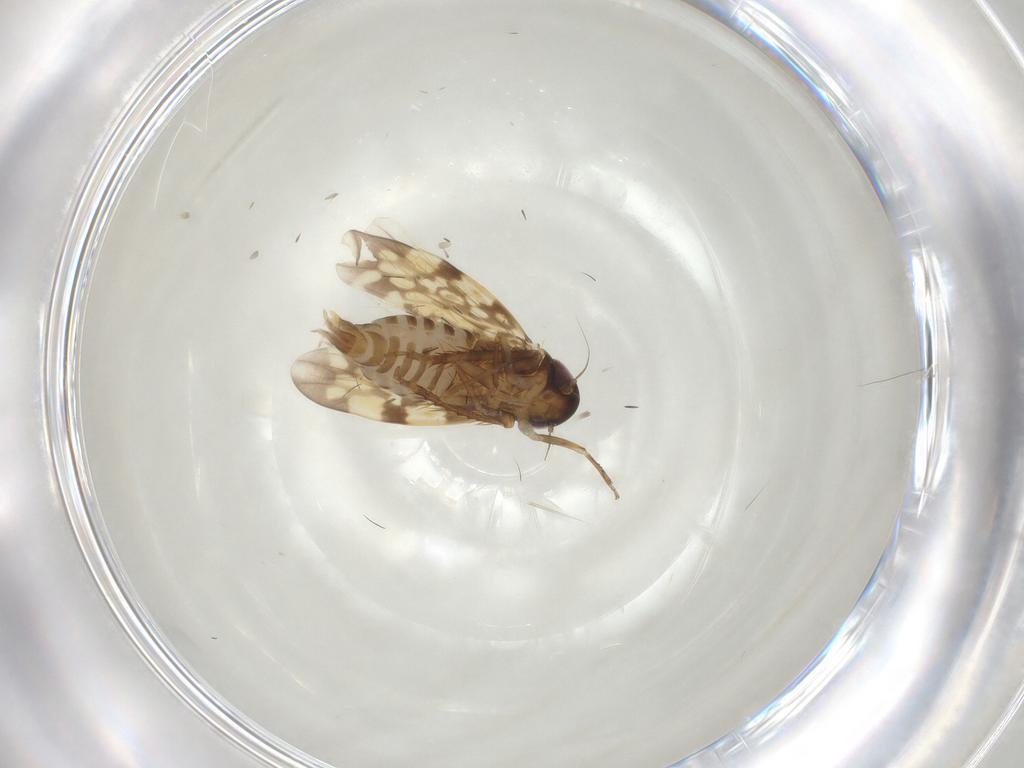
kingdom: Animalia
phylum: Arthropoda
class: Insecta
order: Hemiptera
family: Cicadellidae
